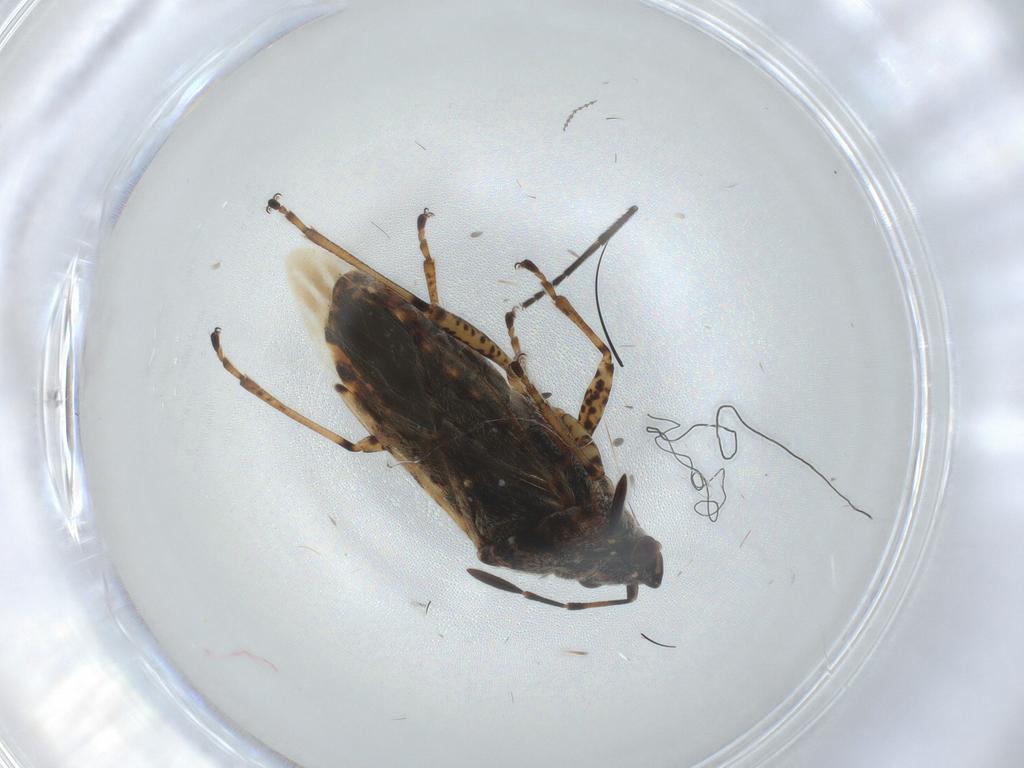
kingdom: Animalia
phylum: Arthropoda
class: Insecta
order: Hemiptera
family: Lygaeidae
